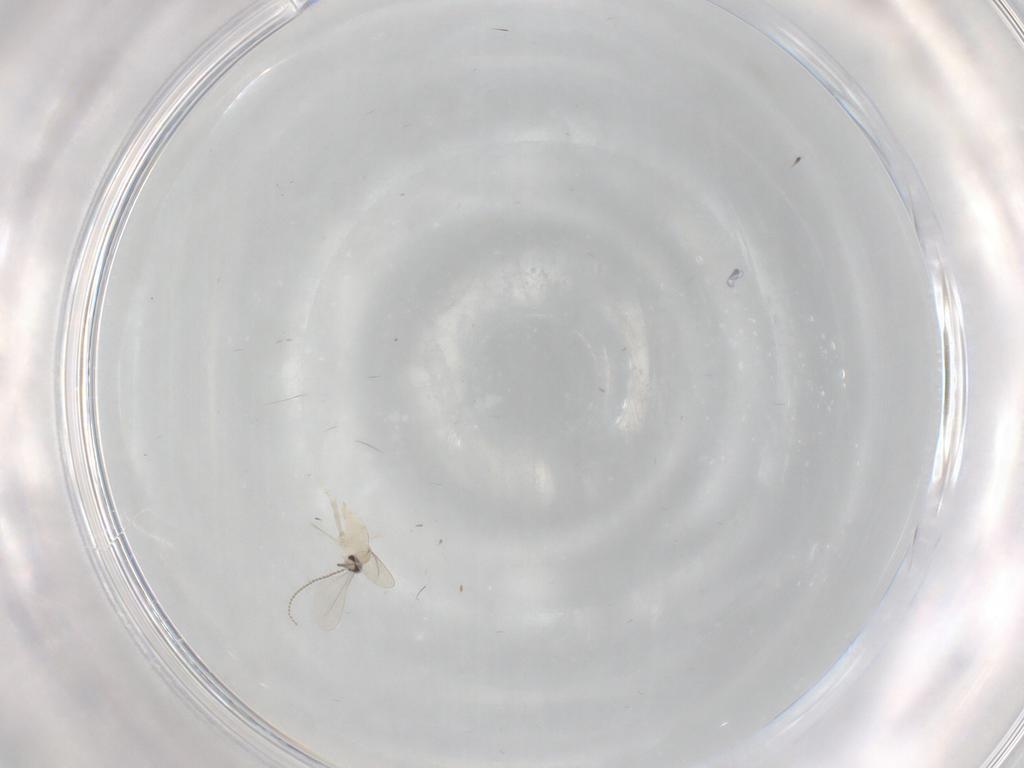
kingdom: Animalia
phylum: Arthropoda
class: Insecta
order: Diptera
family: Cecidomyiidae
